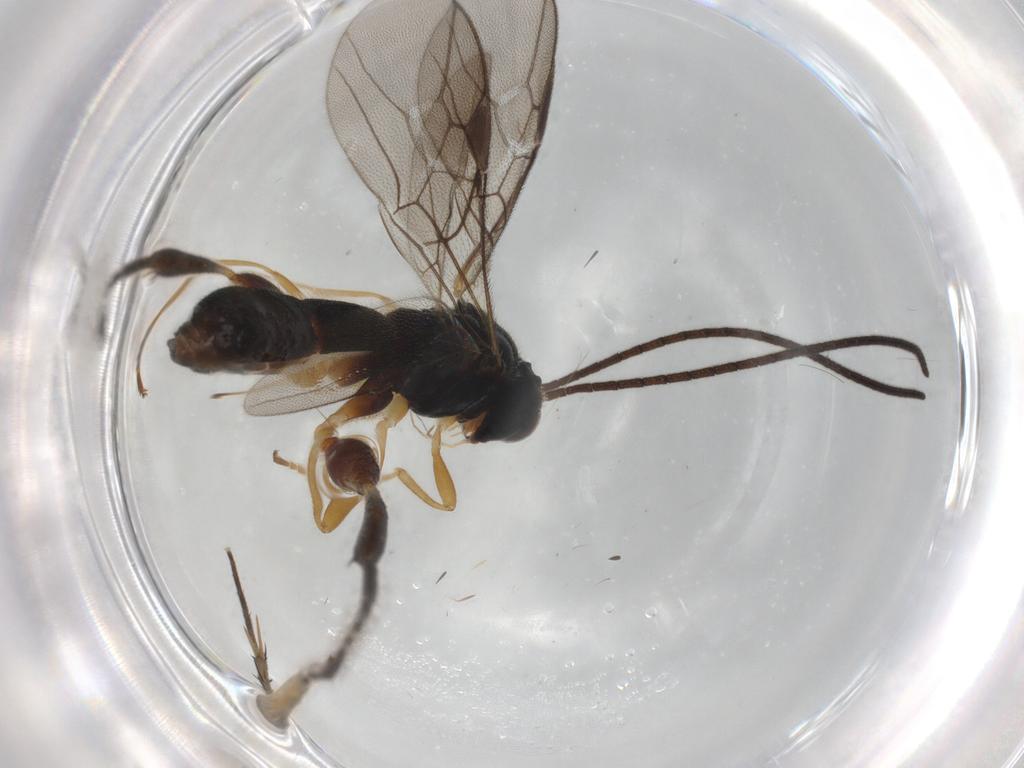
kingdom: Animalia
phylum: Arthropoda
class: Insecta
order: Hymenoptera
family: Braconidae
